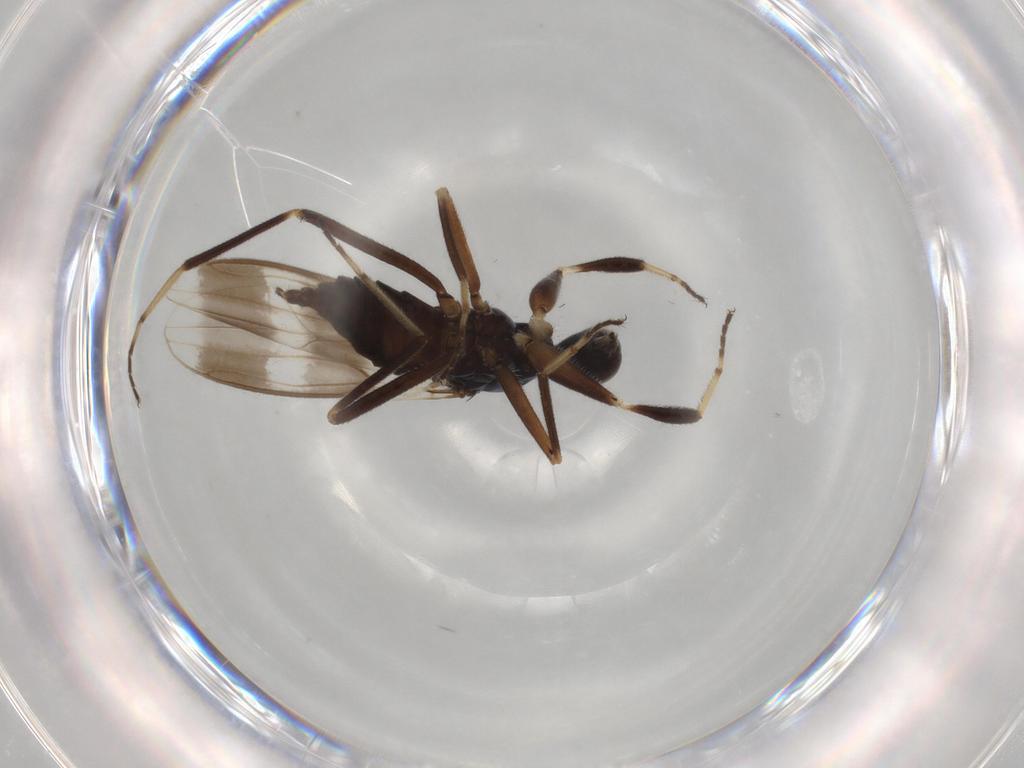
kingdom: Animalia
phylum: Arthropoda
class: Insecta
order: Diptera
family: Hybotidae
